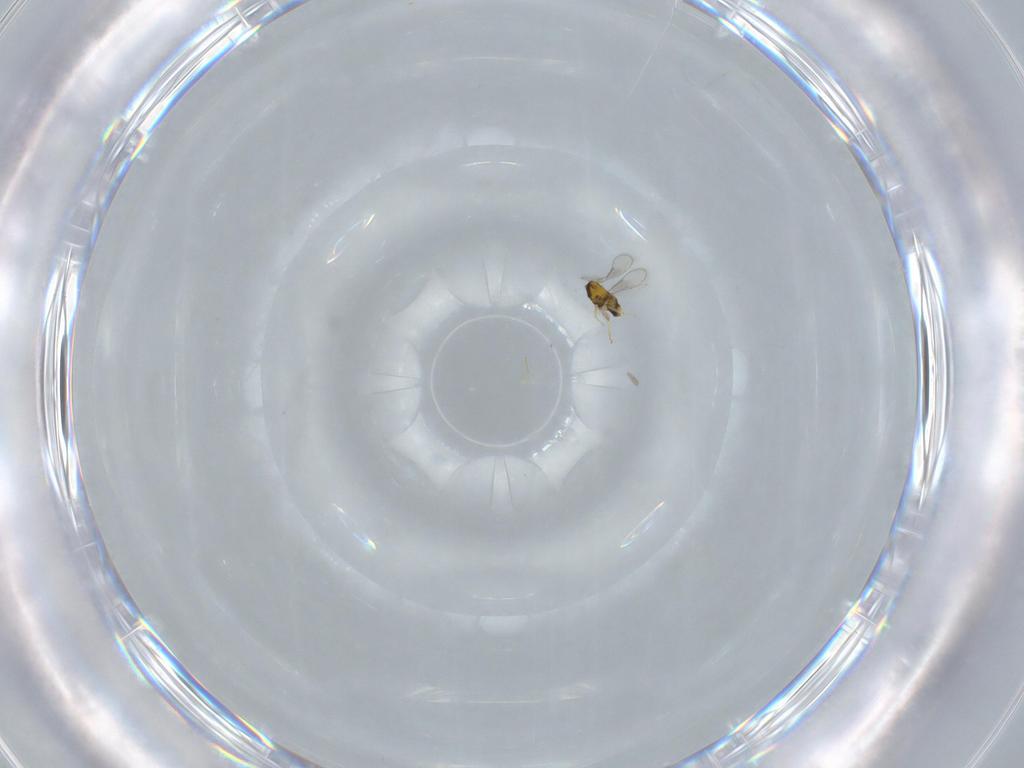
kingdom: Animalia
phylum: Arthropoda
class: Insecta
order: Hymenoptera
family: Aphelinidae
